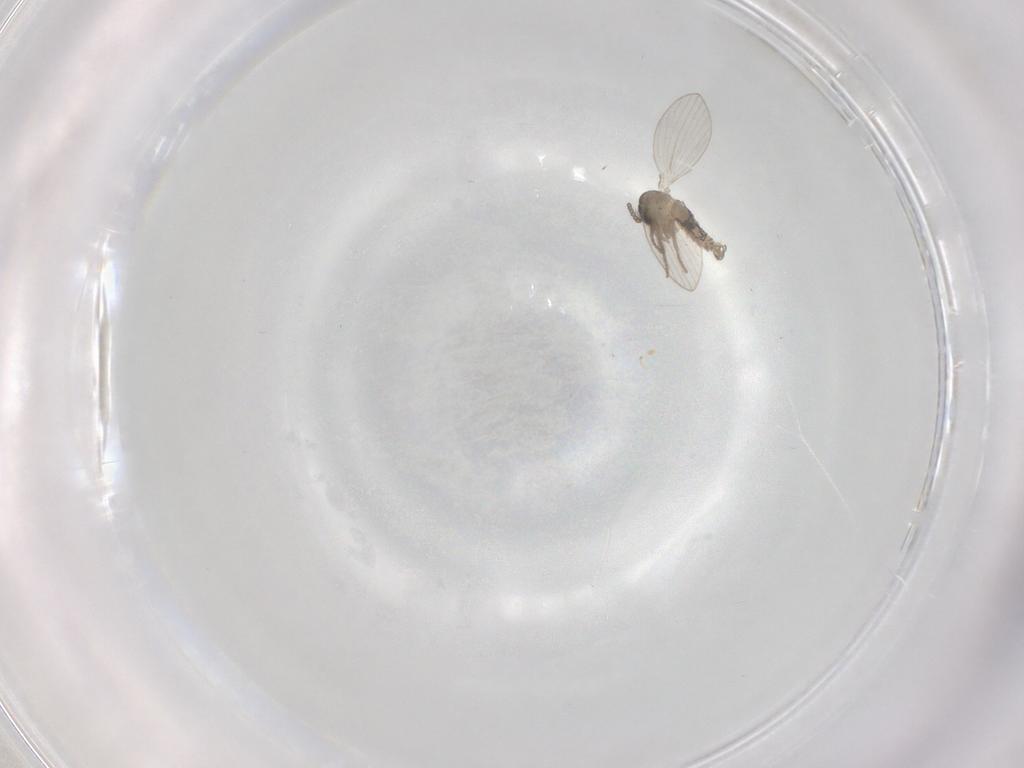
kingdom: Animalia
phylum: Arthropoda
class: Insecta
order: Diptera
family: Psychodidae
